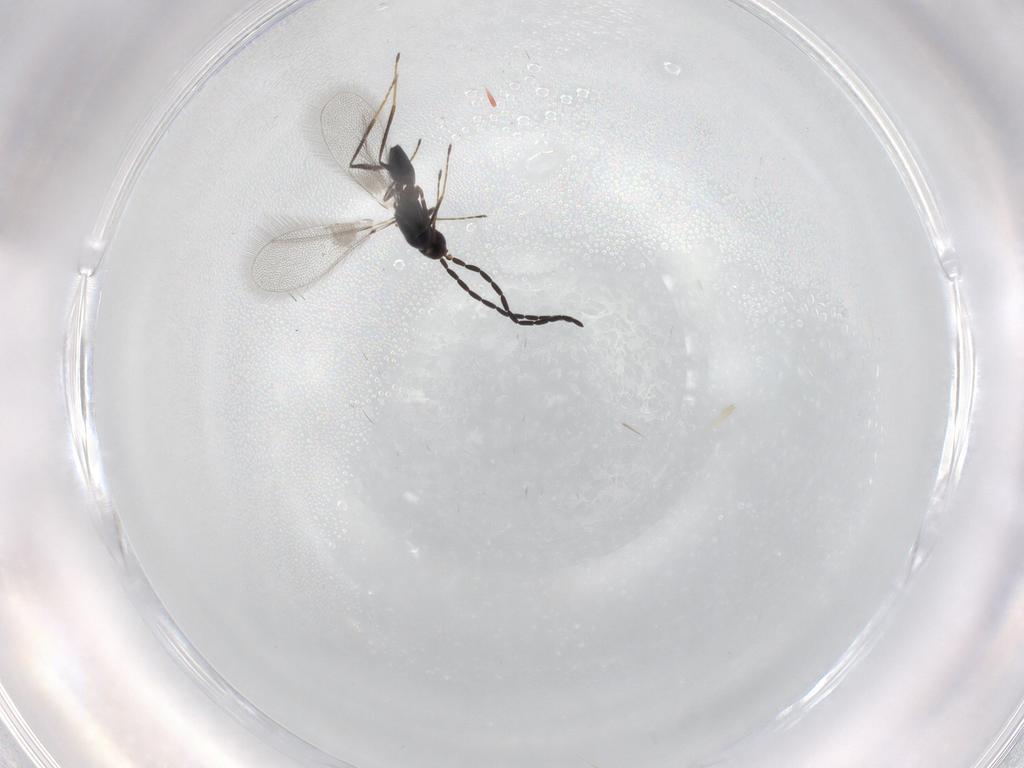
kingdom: Animalia
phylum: Arthropoda
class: Insecta
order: Hymenoptera
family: Mymaridae
